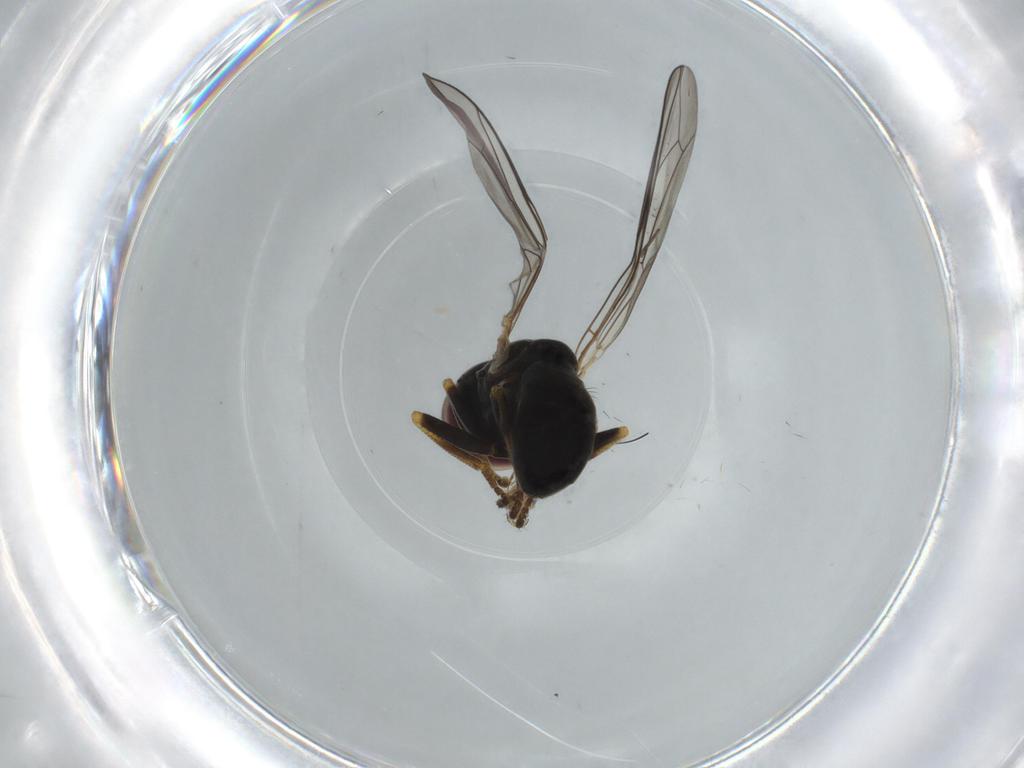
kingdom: Animalia
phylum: Arthropoda
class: Insecta
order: Diptera
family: Pipunculidae
